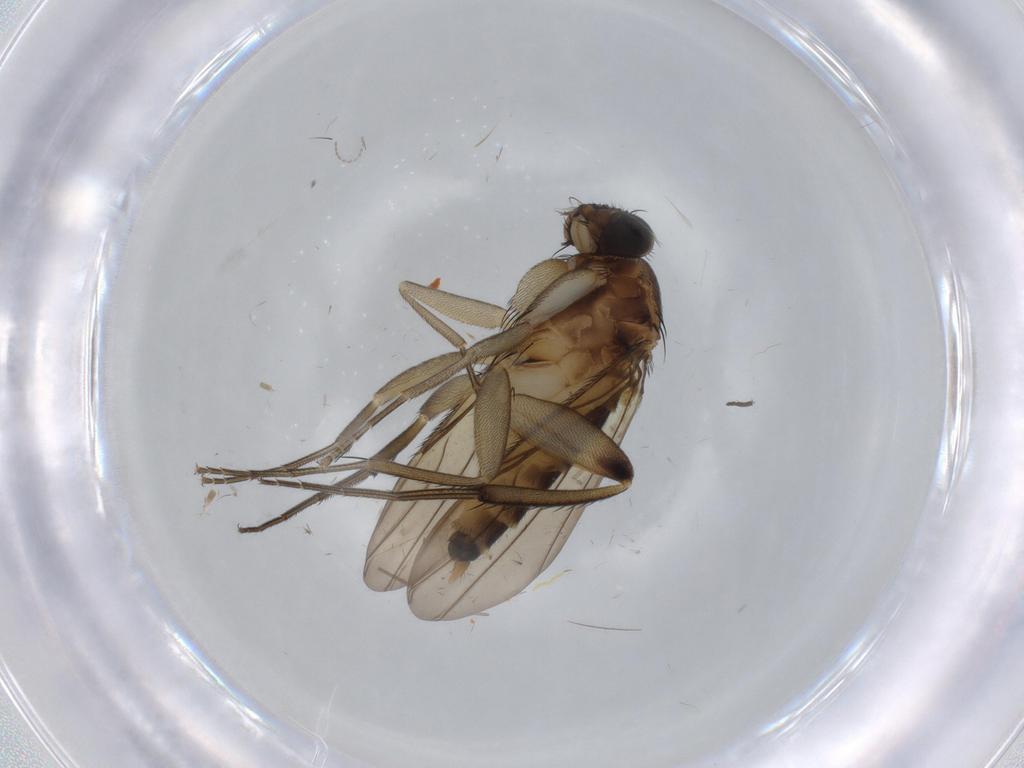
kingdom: Animalia
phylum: Arthropoda
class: Insecta
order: Diptera
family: Phoridae
